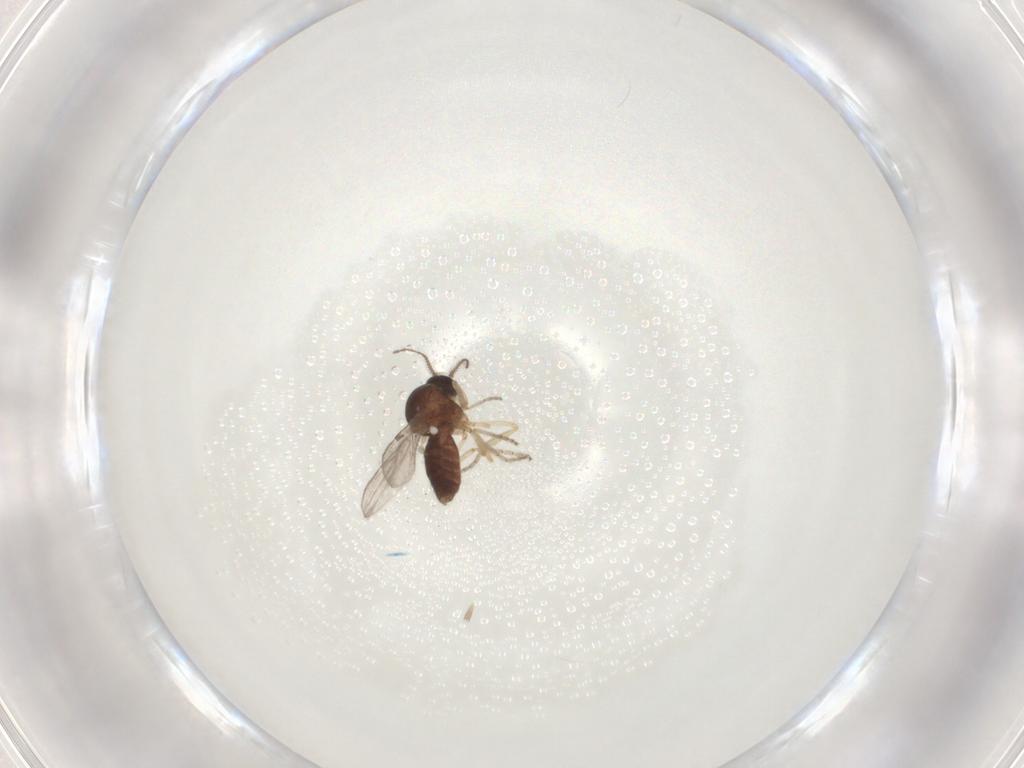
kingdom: Animalia
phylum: Arthropoda
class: Insecta
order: Diptera
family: Ceratopogonidae
